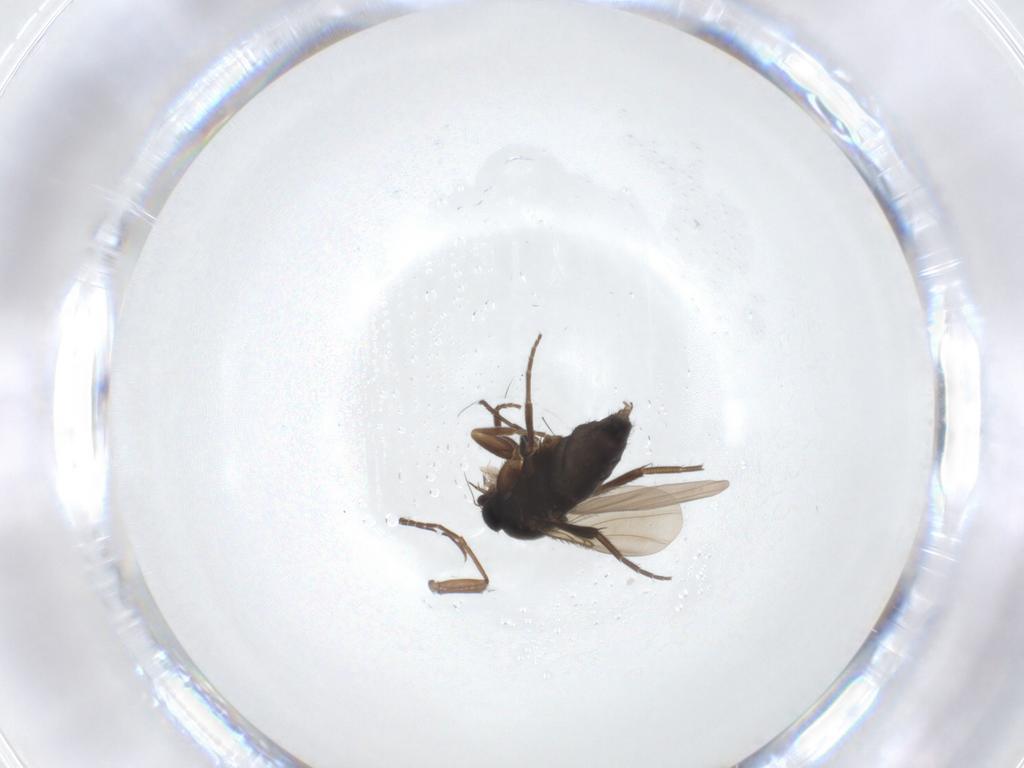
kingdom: Animalia
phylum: Arthropoda
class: Insecta
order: Diptera
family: Phoridae
